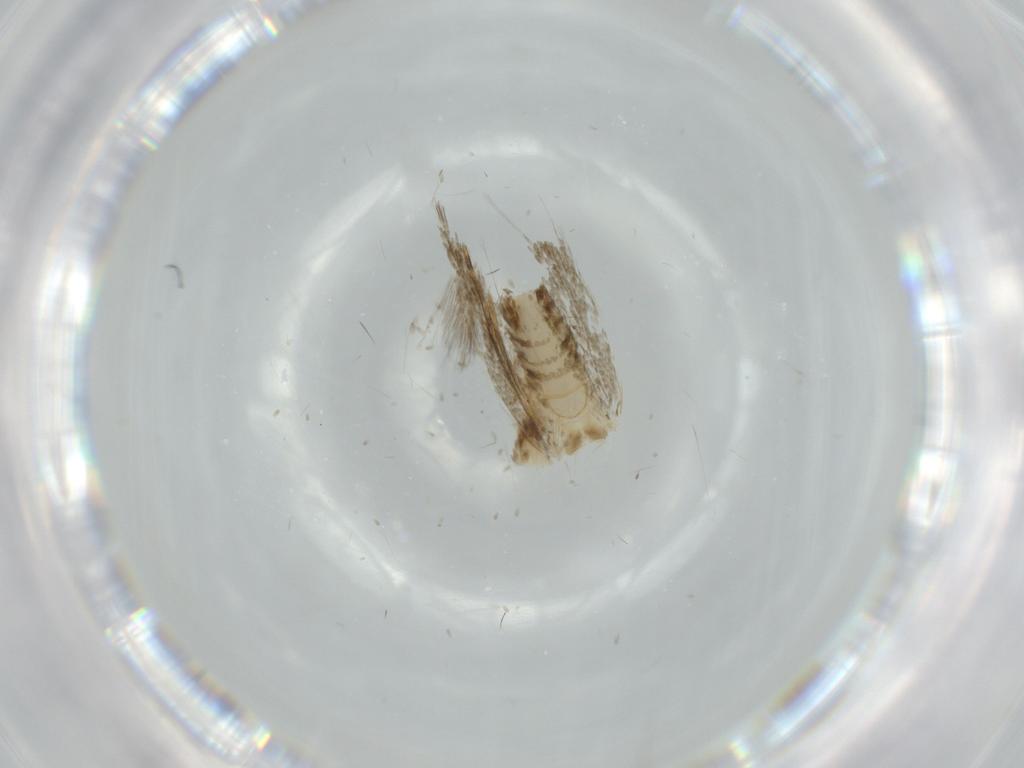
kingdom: Animalia
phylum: Arthropoda
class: Insecta
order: Lepidoptera
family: Tineidae
